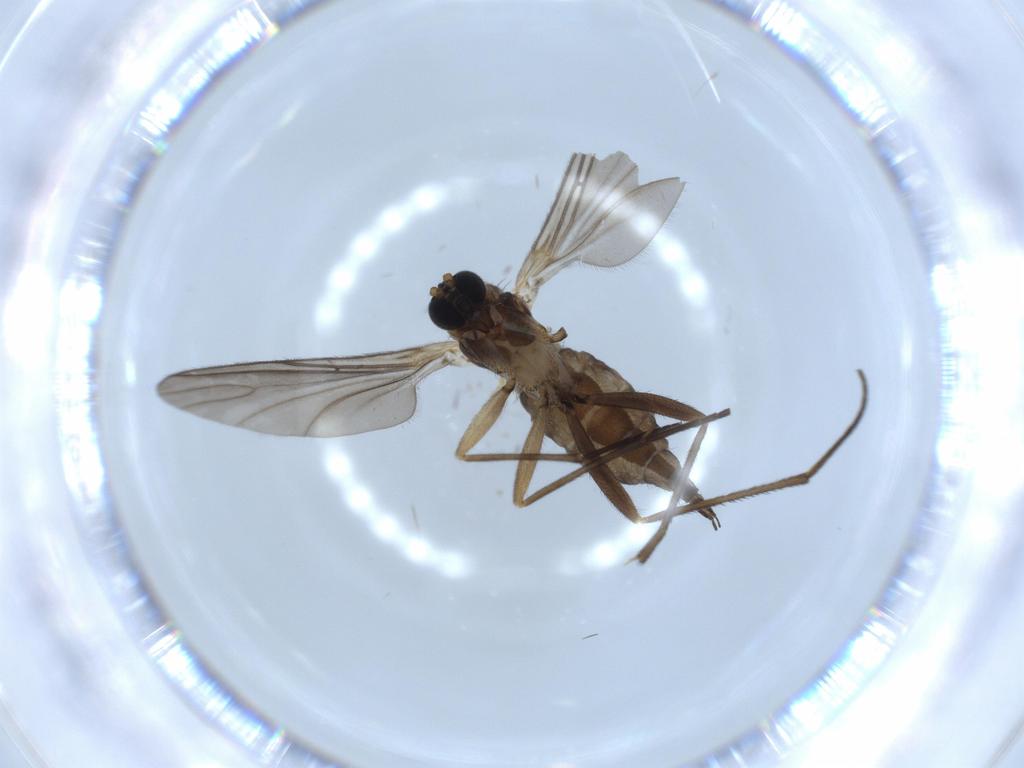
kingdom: Animalia
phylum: Arthropoda
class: Insecta
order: Diptera
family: Sciaridae
